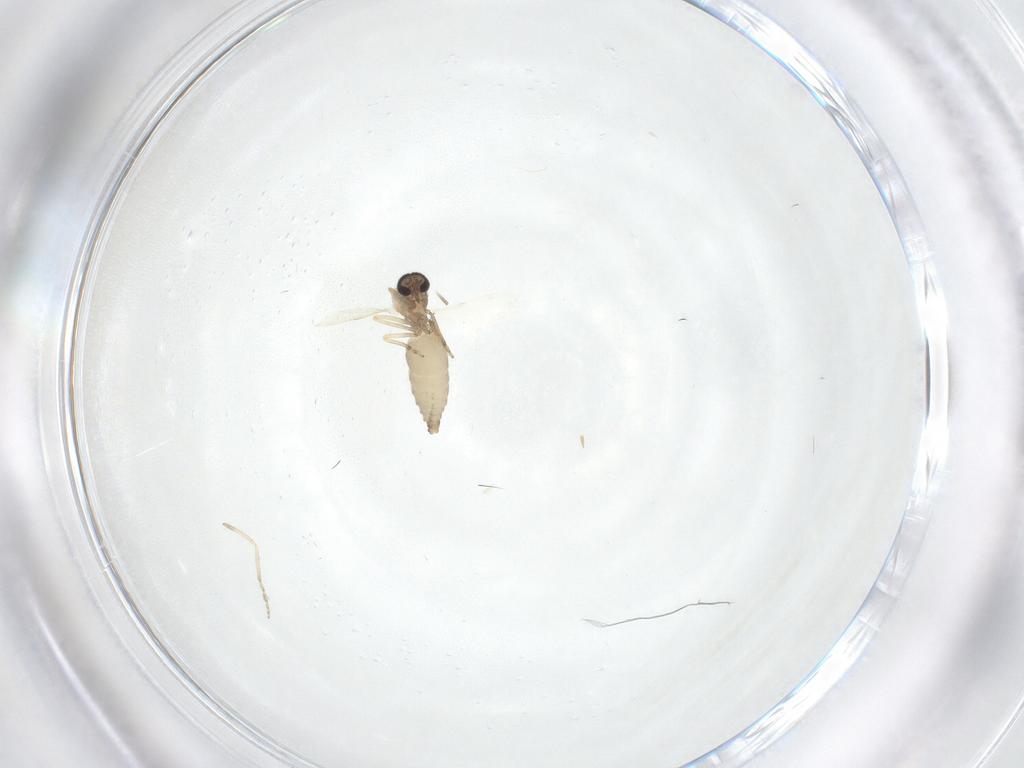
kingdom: Animalia
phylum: Arthropoda
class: Insecta
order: Diptera
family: Ceratopogonidae
